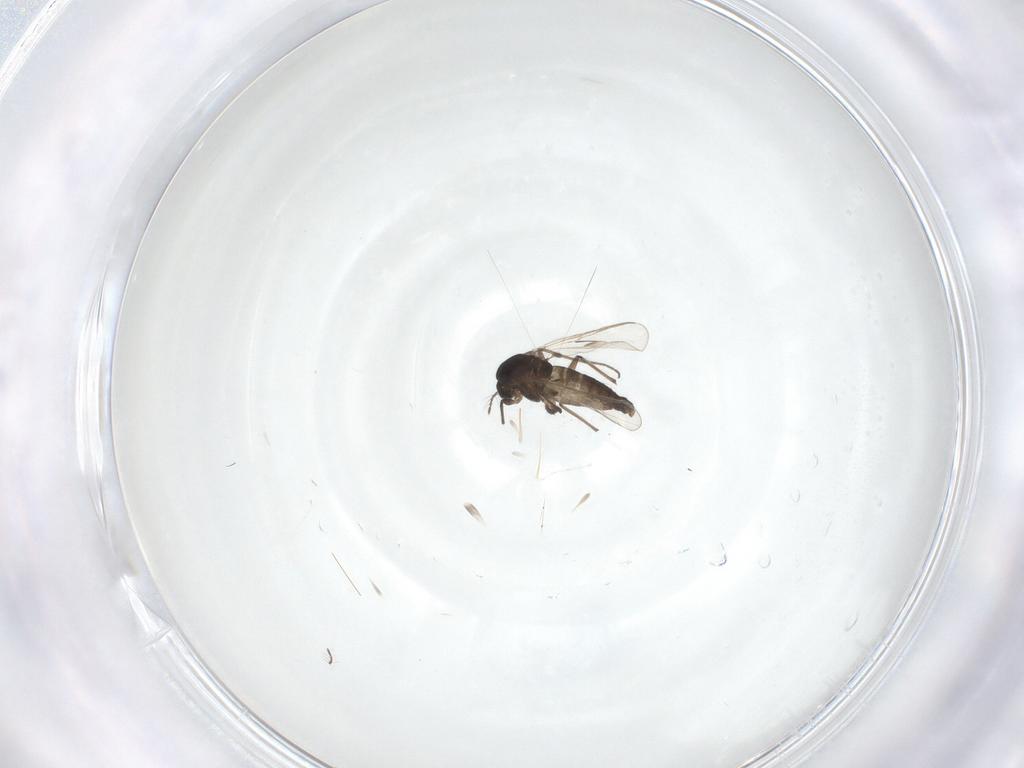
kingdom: Animalia
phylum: Arthropoda
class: Insecta
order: Diptera
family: Chironomidae
